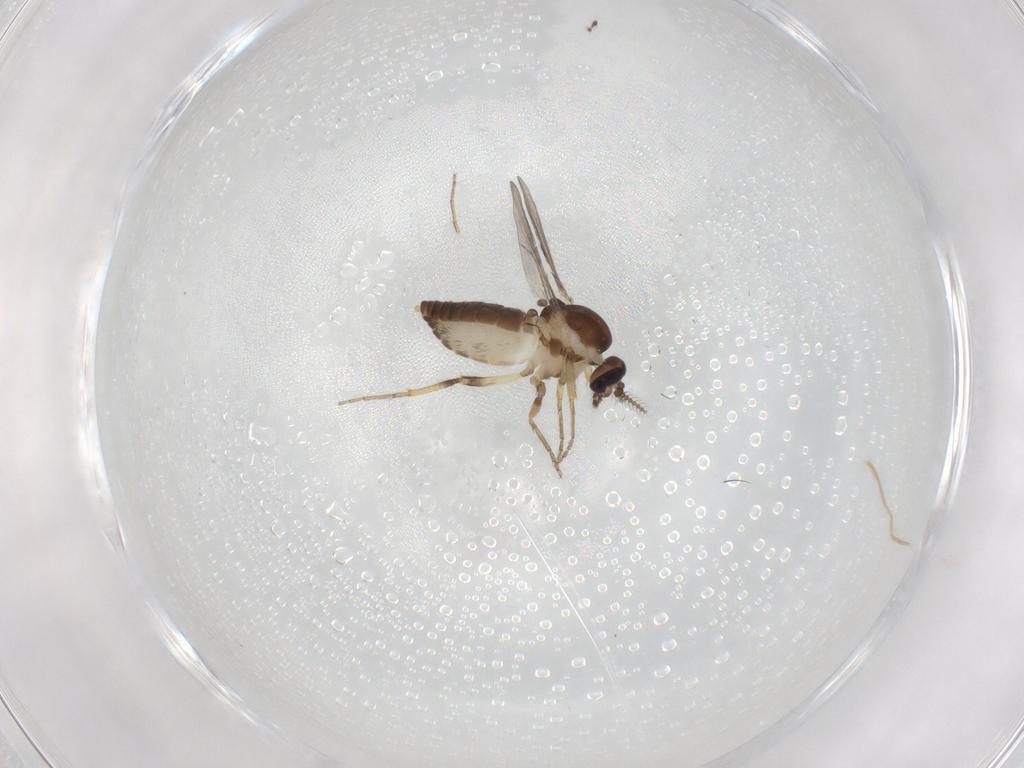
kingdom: Animalia
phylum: Arthropoda
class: Insecta
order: Diptera
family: Ceratopogonidae
